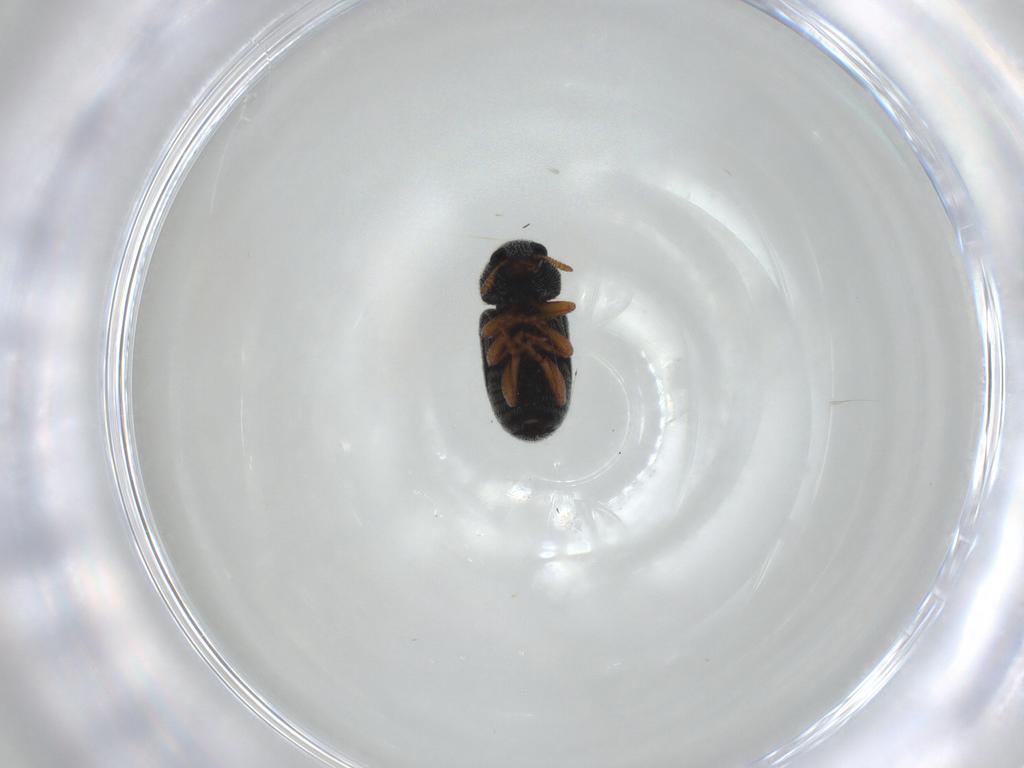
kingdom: Animalia
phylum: Arthropoda
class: Insecta
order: Coleoptera
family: Anthribidae
